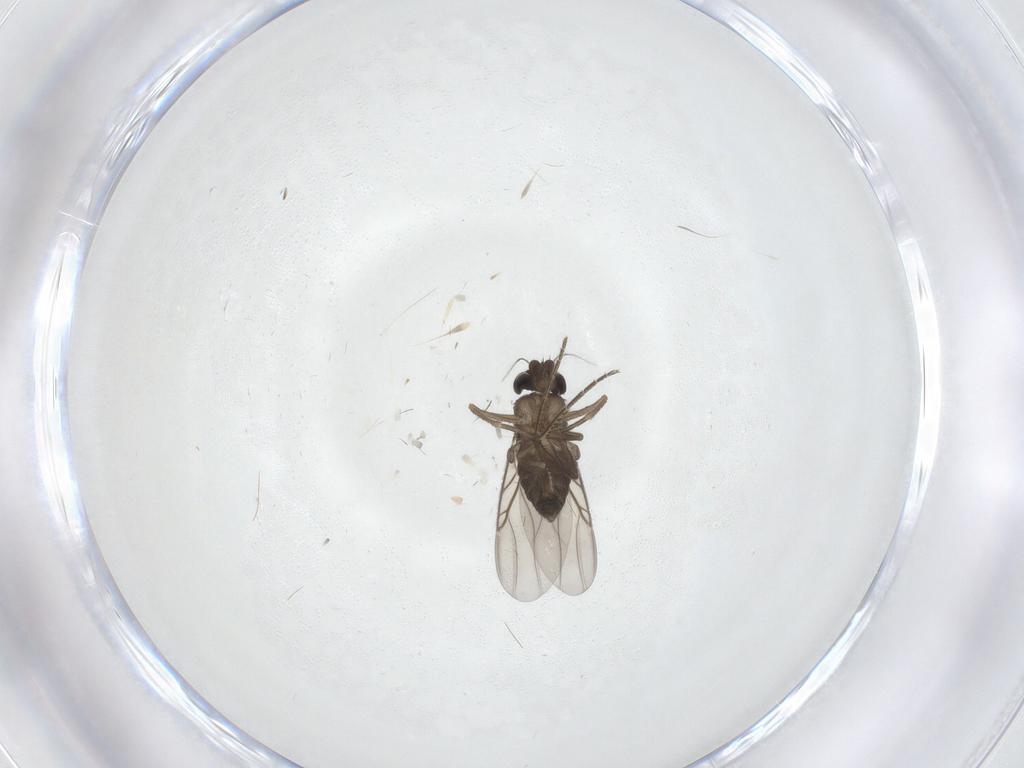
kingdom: Animalia
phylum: Arthropoda
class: Insecta
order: Diptera
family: Phoridae
